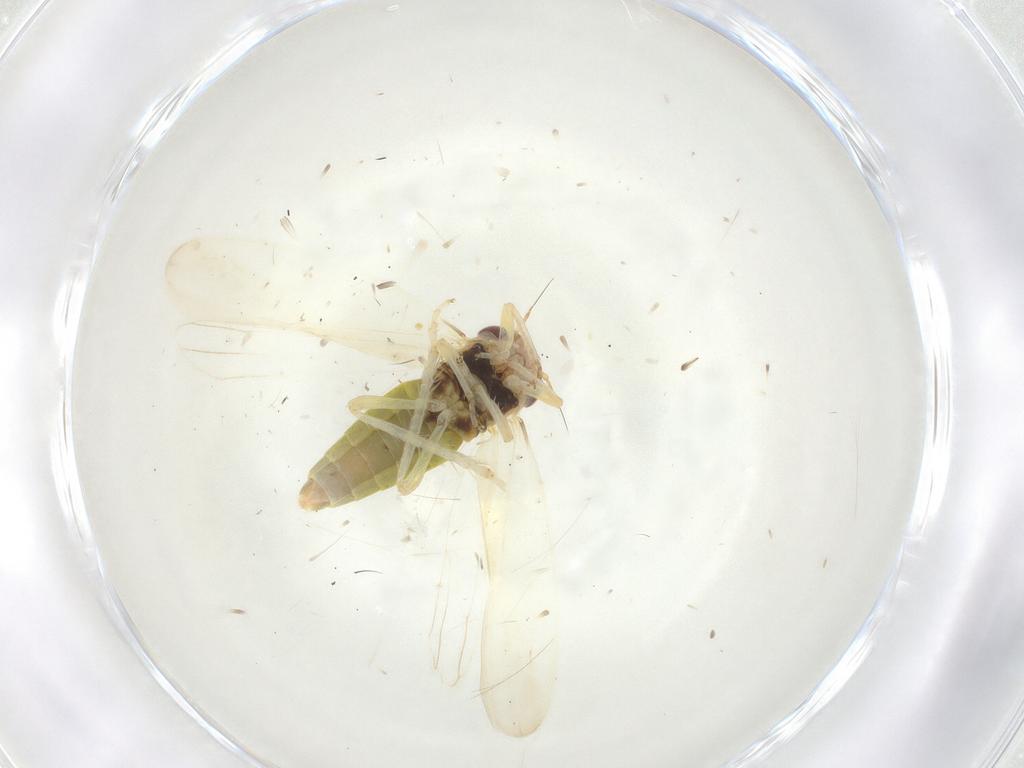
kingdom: Animalia
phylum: Arthropoda
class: Insecta
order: Hemiptera
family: Cicadellidae
